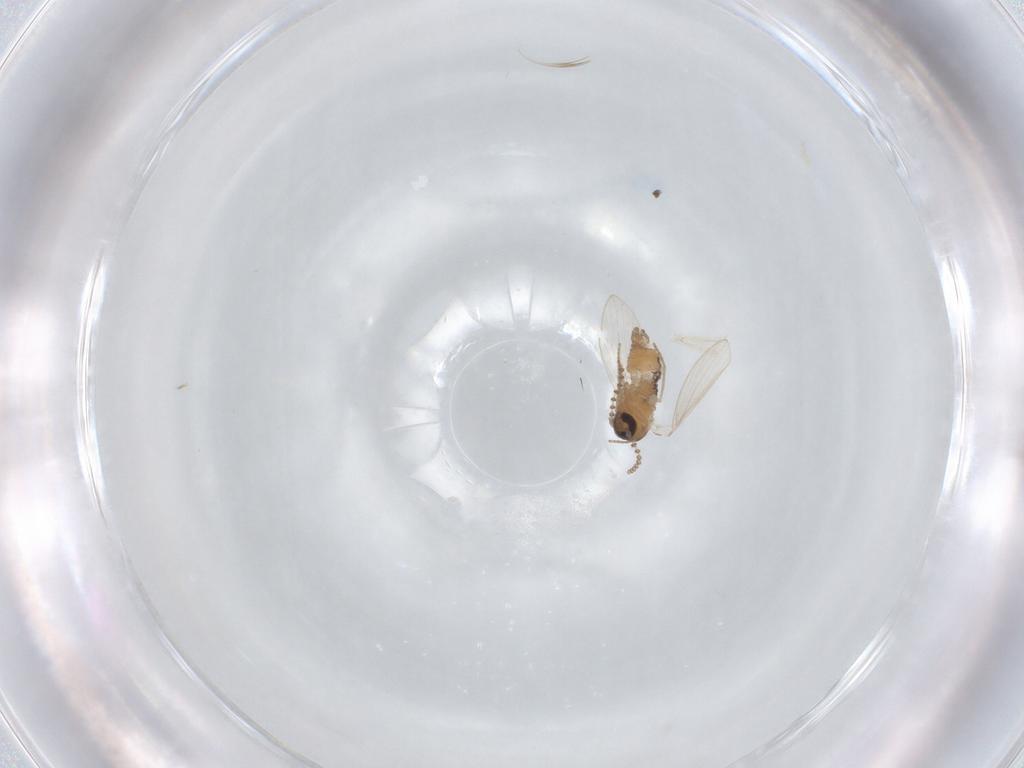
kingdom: Animalia
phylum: Arthropoda
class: Insecta
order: Diptera
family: Psychodidae
